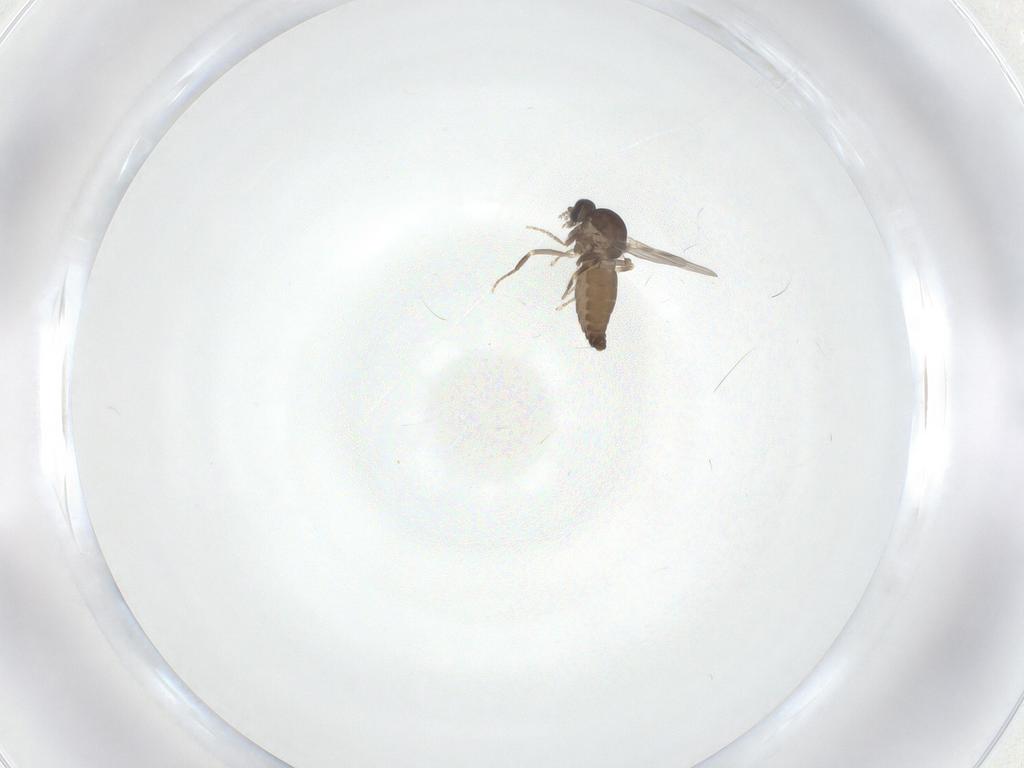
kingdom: Animalia
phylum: Arthropoda
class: Insecta
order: Diptera
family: Ceratopogonidae
